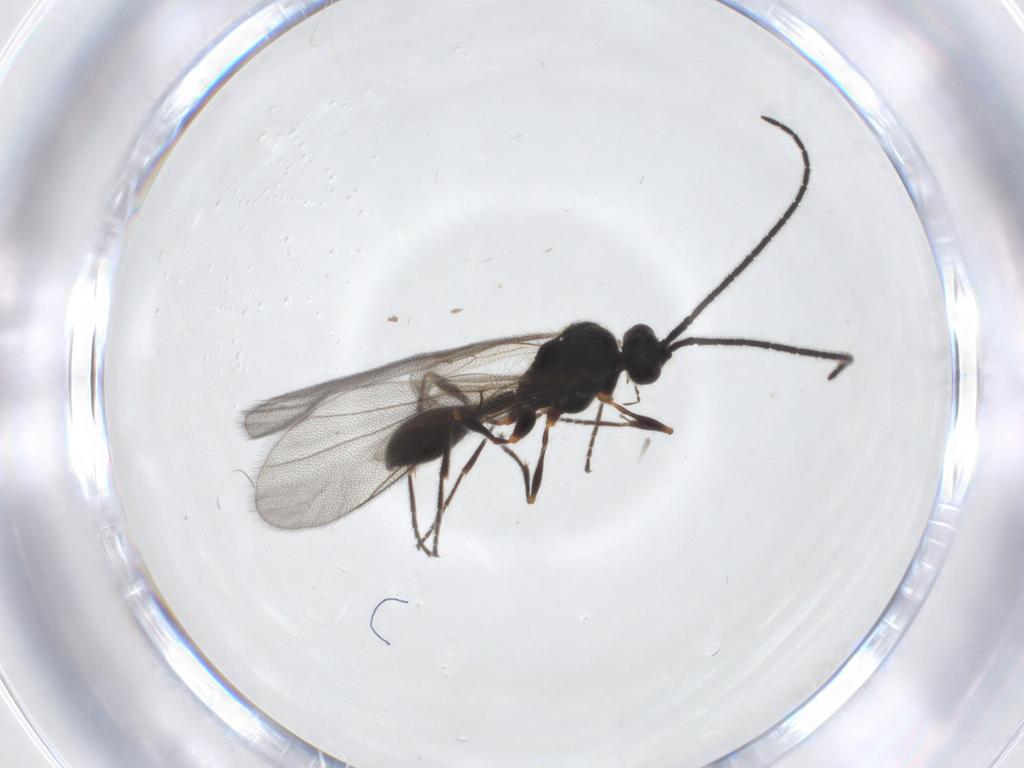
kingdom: Animalia
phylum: Arthropoda
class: Insecta
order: Hymenoptera
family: Diapriidae
